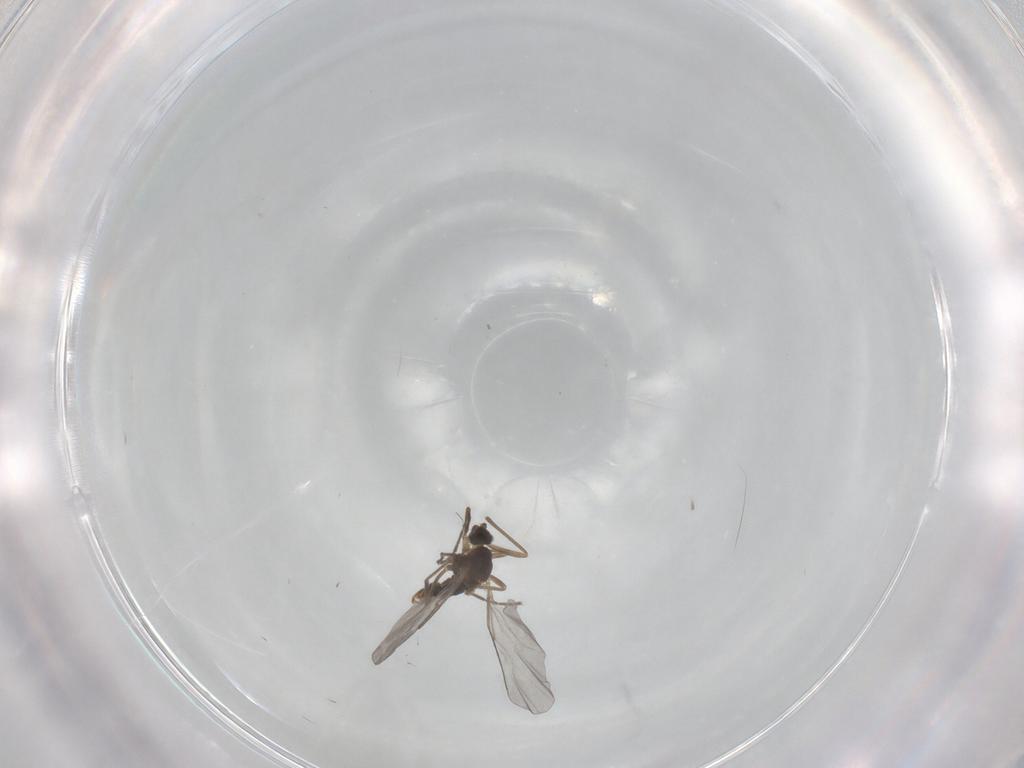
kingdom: Animalia
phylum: Arthropoda
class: Insecta
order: Diptera
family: Cecidomyiidae
